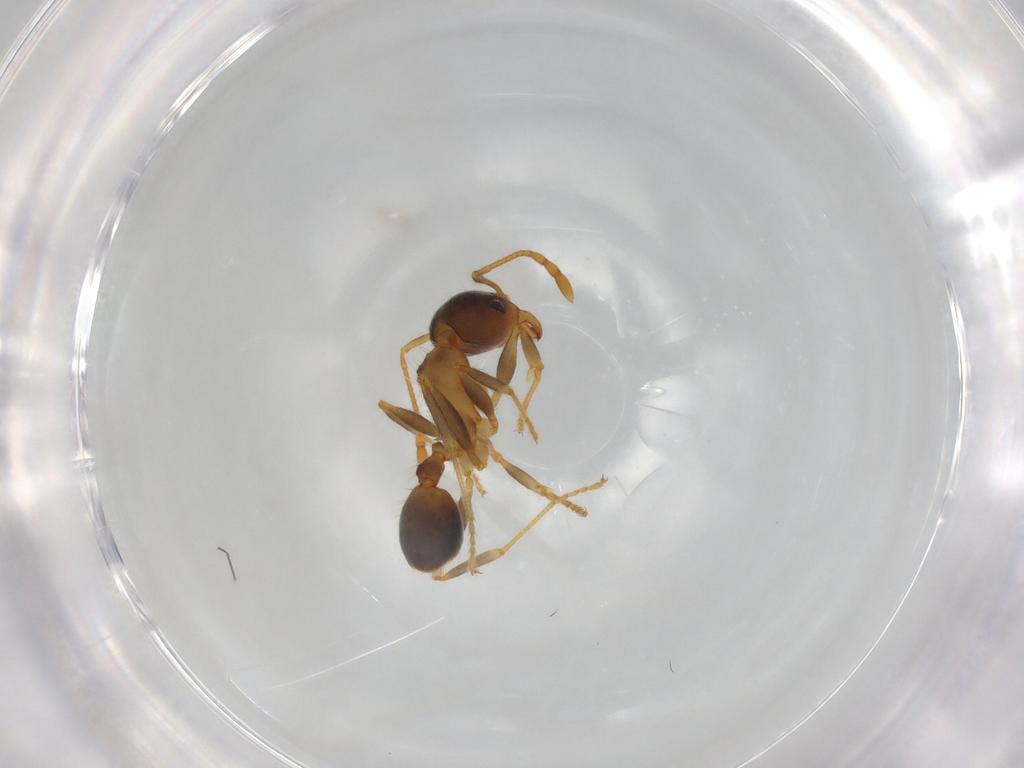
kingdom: Animalia
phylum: Arthropoda
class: Insecta
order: Hymenoptera
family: Formicidae
